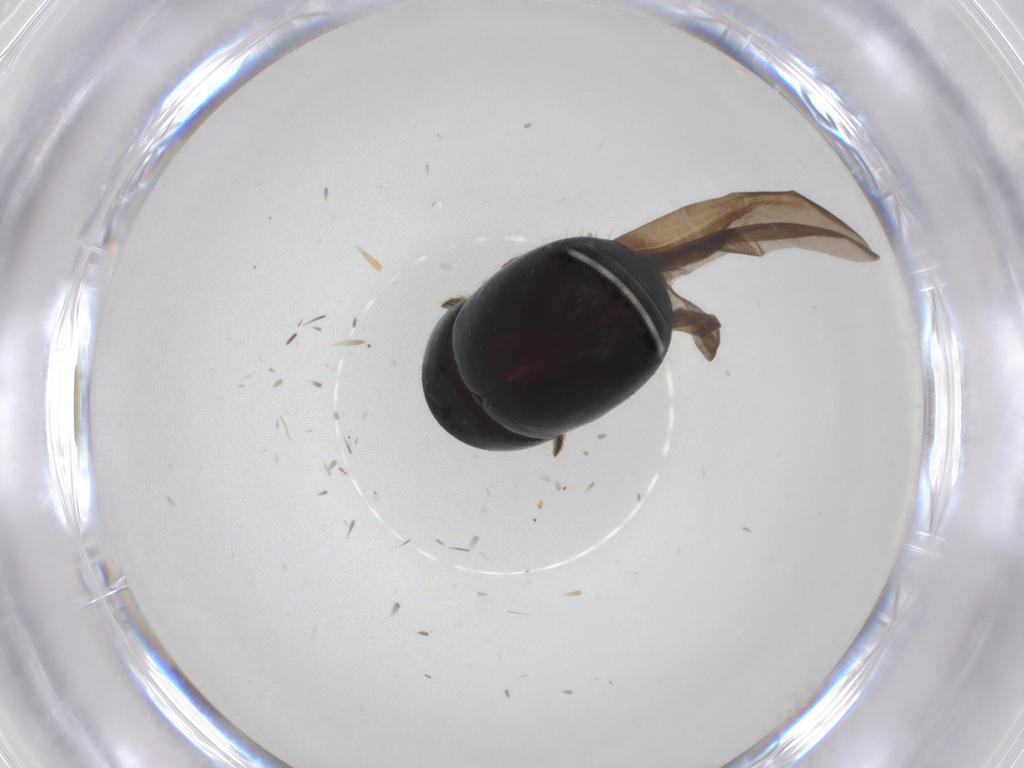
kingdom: Animalia
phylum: Arthropoda
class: Insecta
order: Coleoptera
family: Curculionidae
